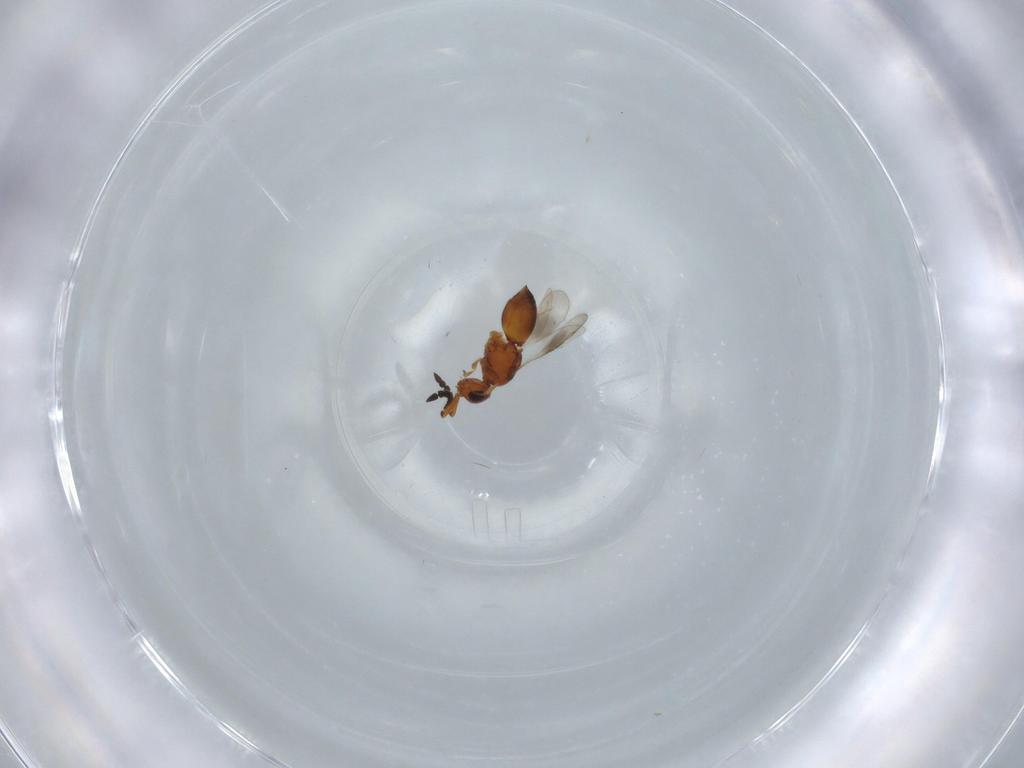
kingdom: Animalia
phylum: Arthropoda
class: Insecta
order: Hymenoptera
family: Ceraphronidae
